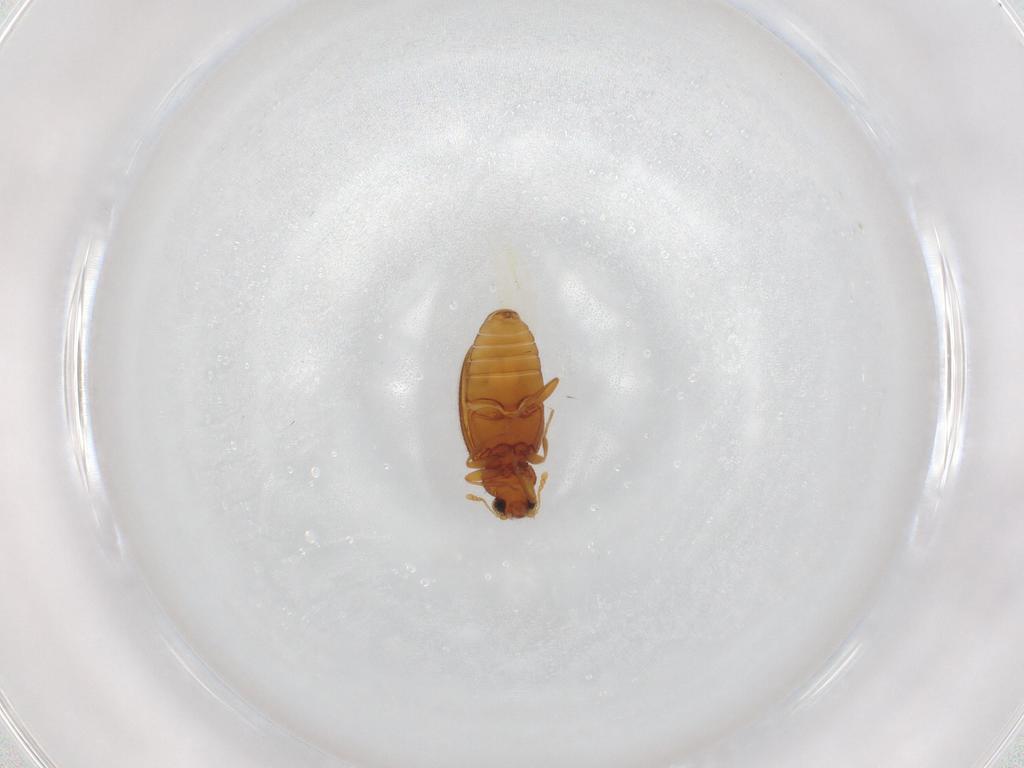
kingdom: Animalia
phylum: Arthropoda
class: Insecta
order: Coleoptera
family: Latridiidae
